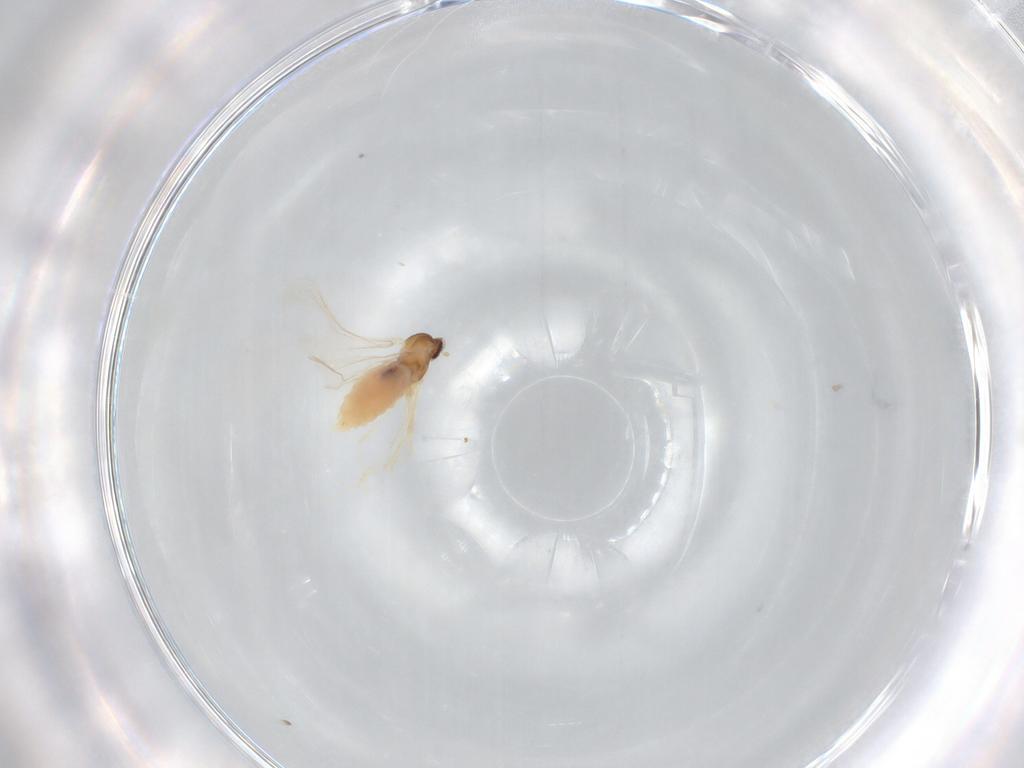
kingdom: Animalia
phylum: Arthropoda
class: Insecta
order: Diptera
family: Cecidomyiidae
